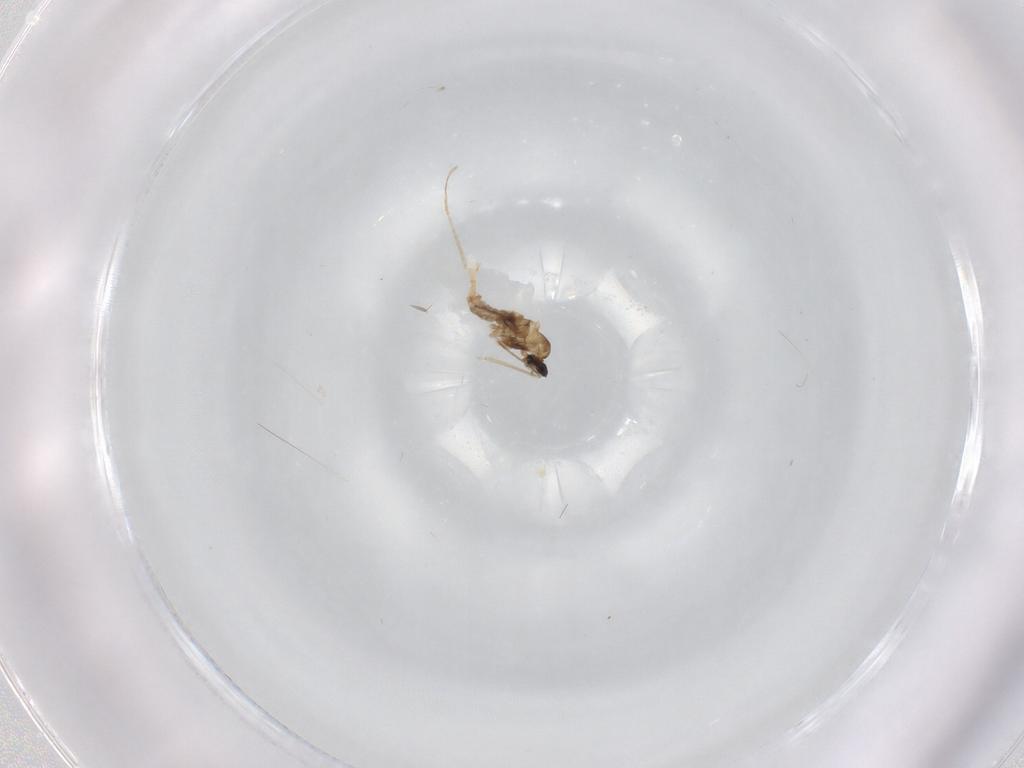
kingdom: Animalia
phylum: Arthropoda
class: Insecta
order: Diptera
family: Cecidomyiidae
